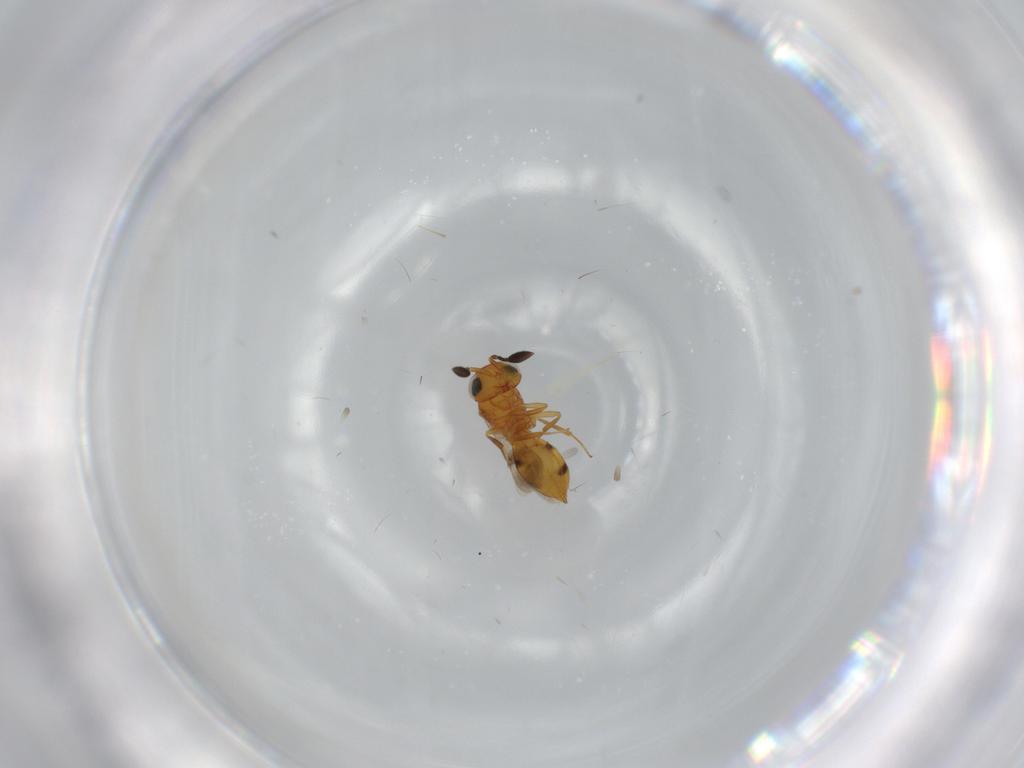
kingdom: Animalia
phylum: Arthropoda
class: Insecta
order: Hymenoptera
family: Scelionidae
